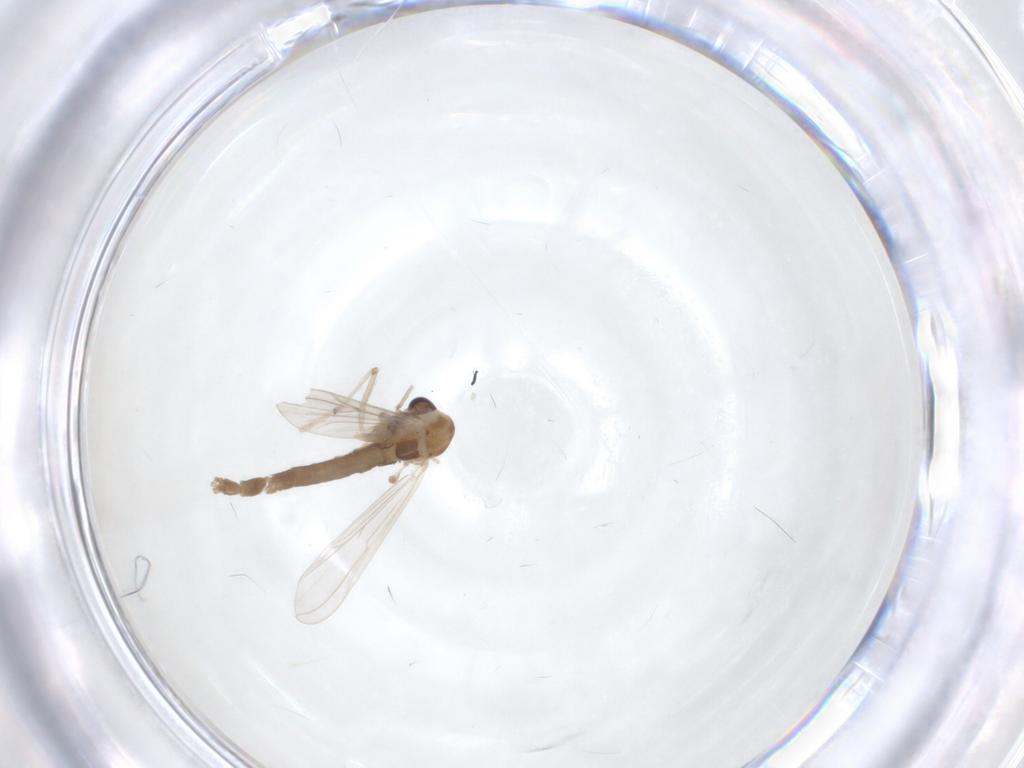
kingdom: Animalia
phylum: Arthropoda
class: Insecta
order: Diptera
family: Chironomidae
